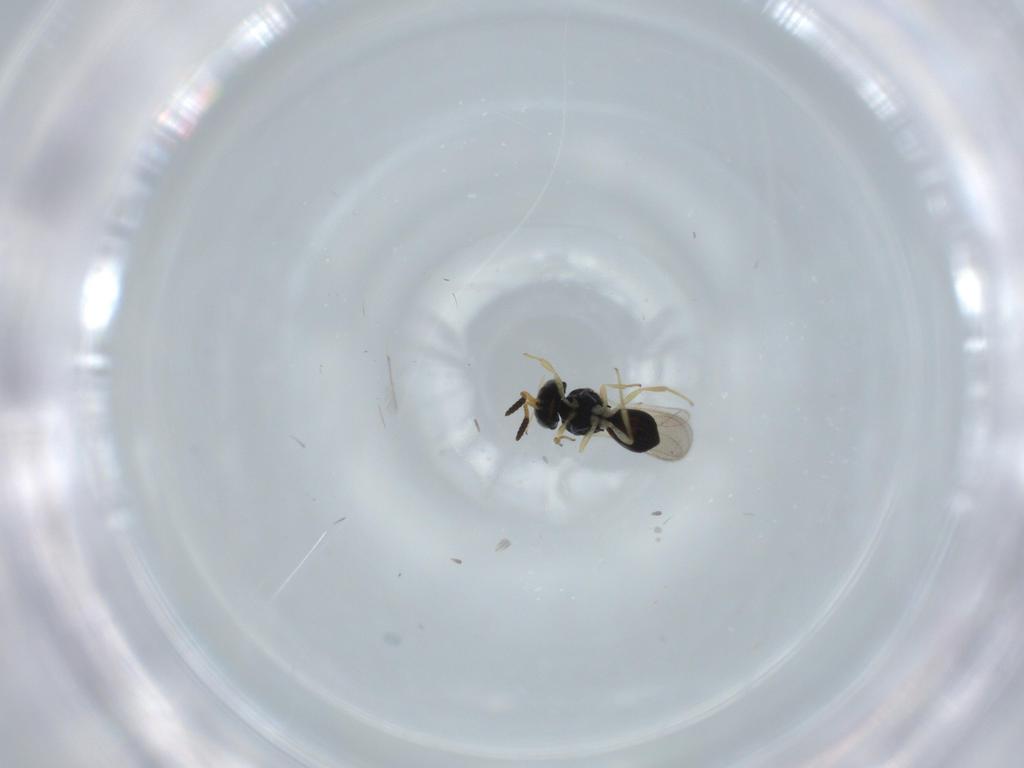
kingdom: Animalia
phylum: Arthropoda
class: Insecta
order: Hymenoptera
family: Scelionidae
